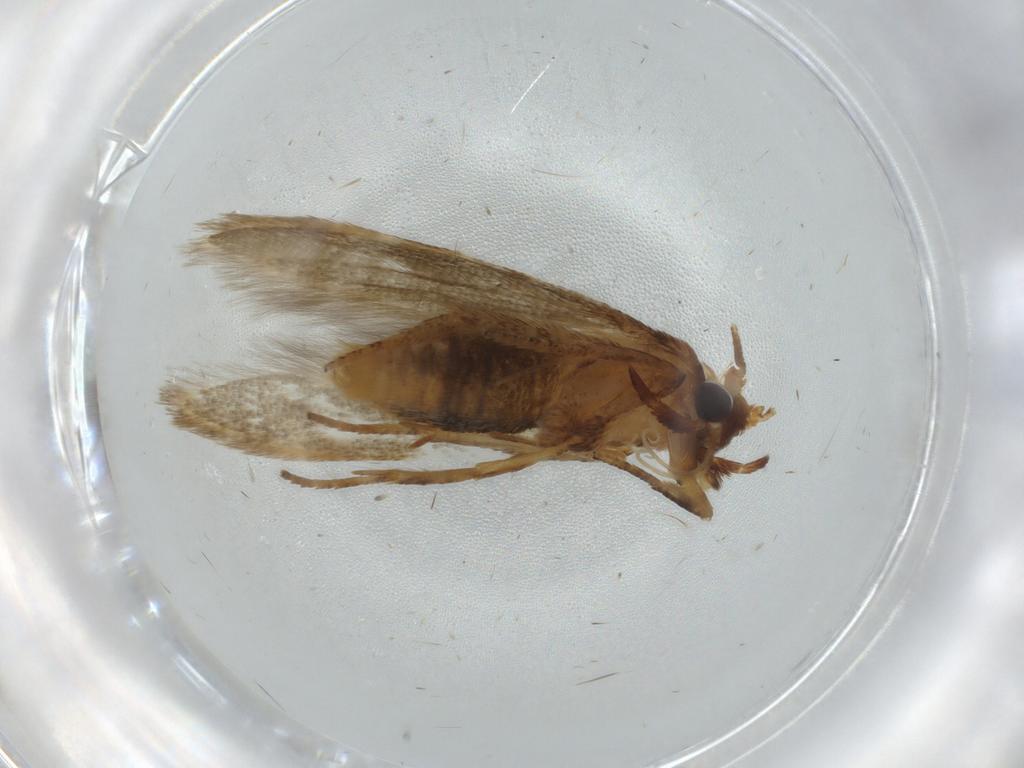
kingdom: Animalia
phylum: Arthropoda
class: Insecta
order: Lepidoptera
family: Coleophoridae
